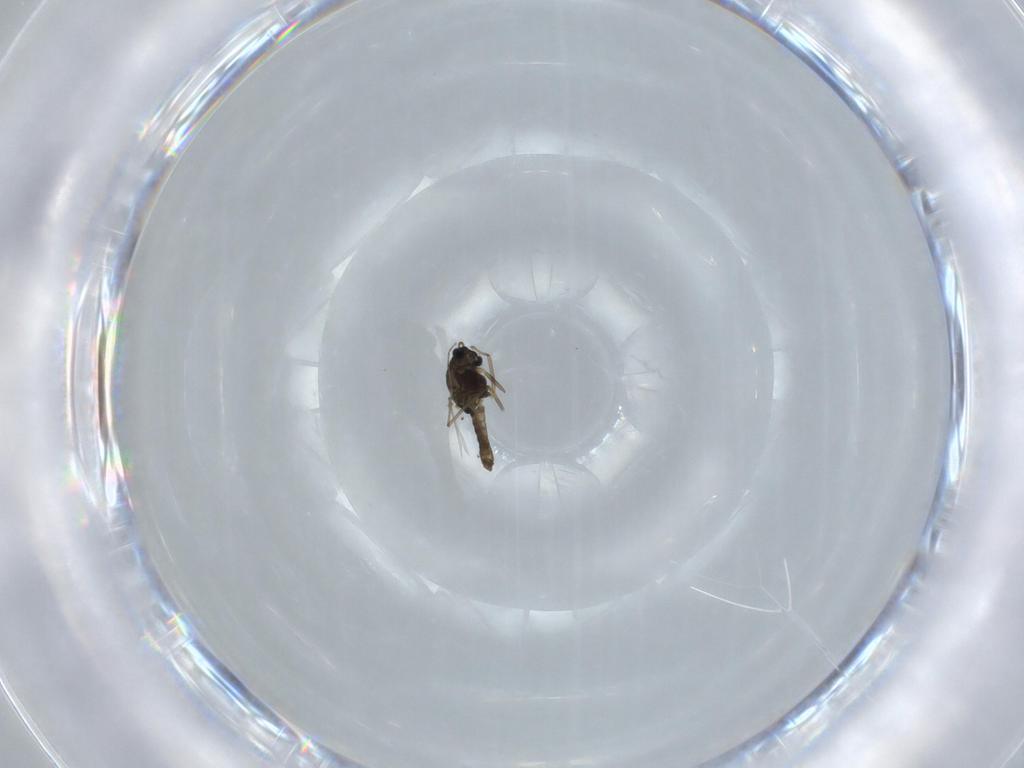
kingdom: Animalia
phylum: Arthropoda
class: Insecta
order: Diptera
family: Chironomidae
